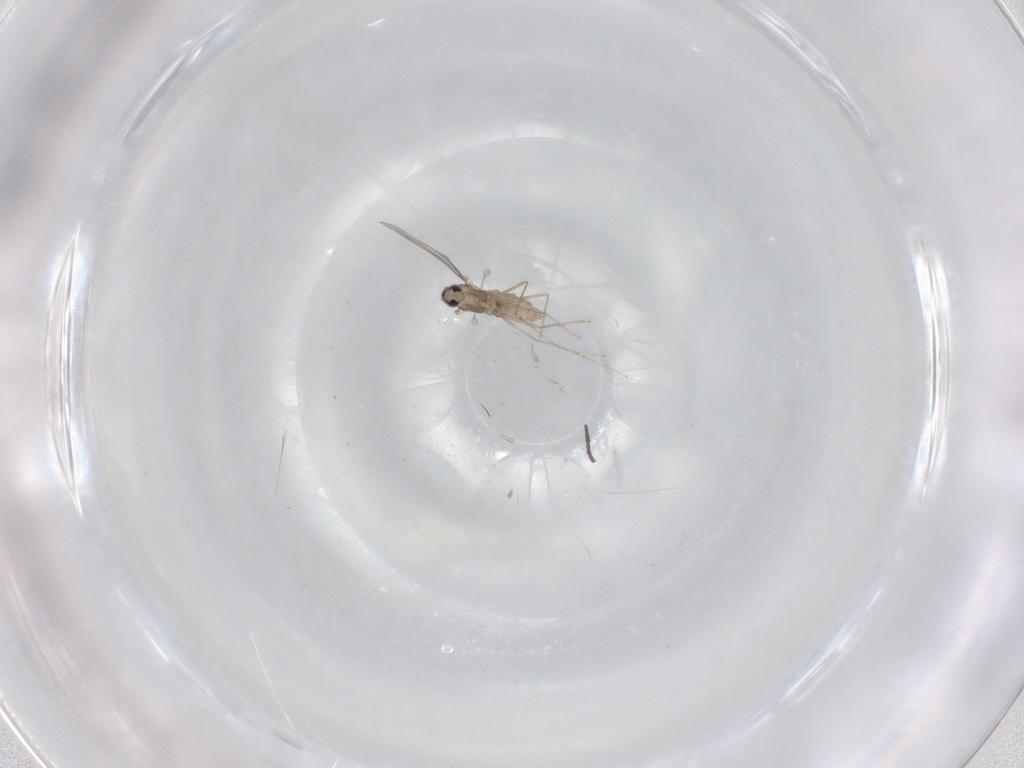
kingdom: Animalia
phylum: Arthropoda
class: Insecta
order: Diptera
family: Cecidomyiidae
